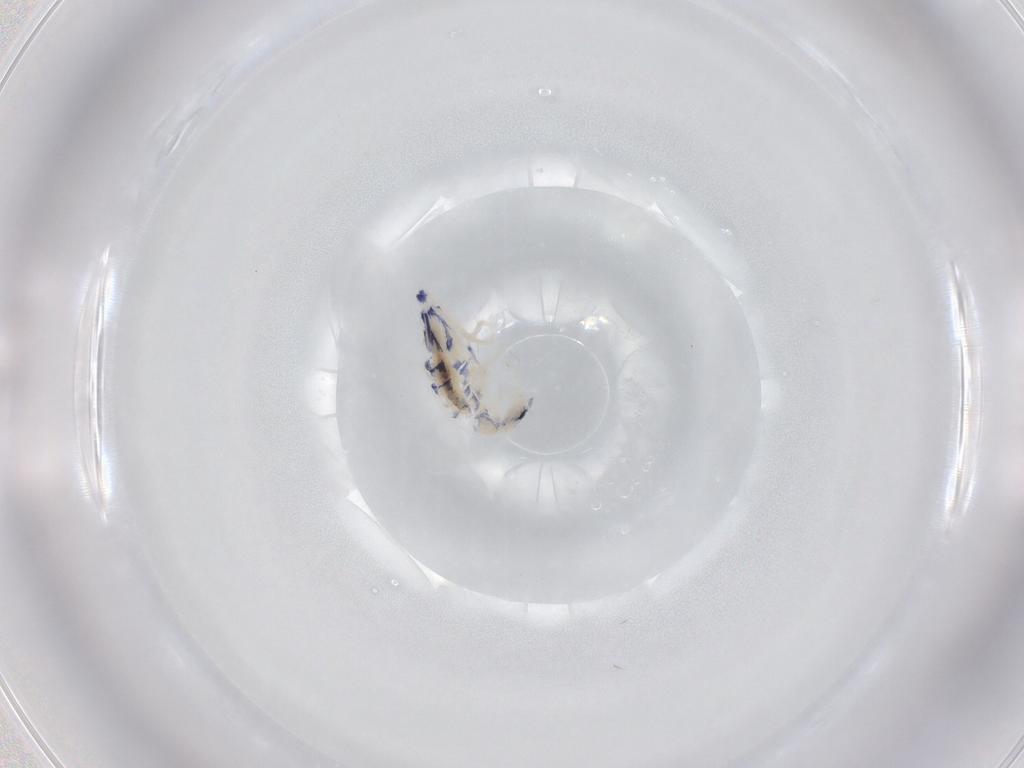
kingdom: Animalia
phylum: Arthropoda
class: Collembola
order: Entomobryomorpha
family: Entomobryidae
